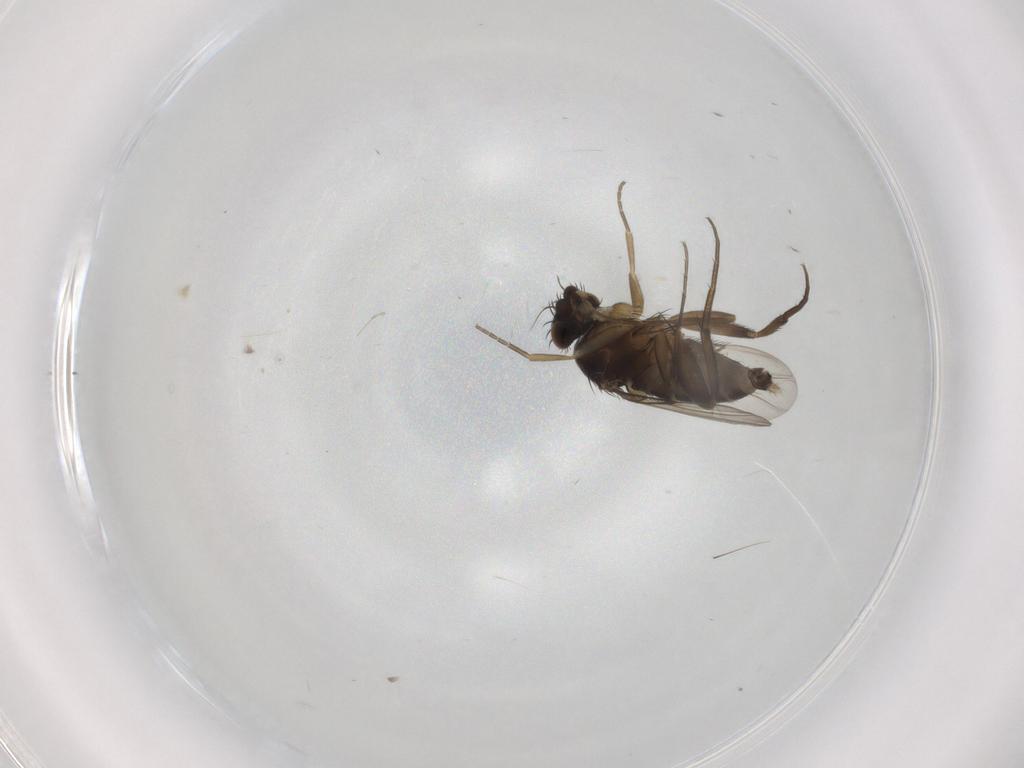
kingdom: Animalia
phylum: Arthropoda
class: Insecta
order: Diptera
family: Phoridae
